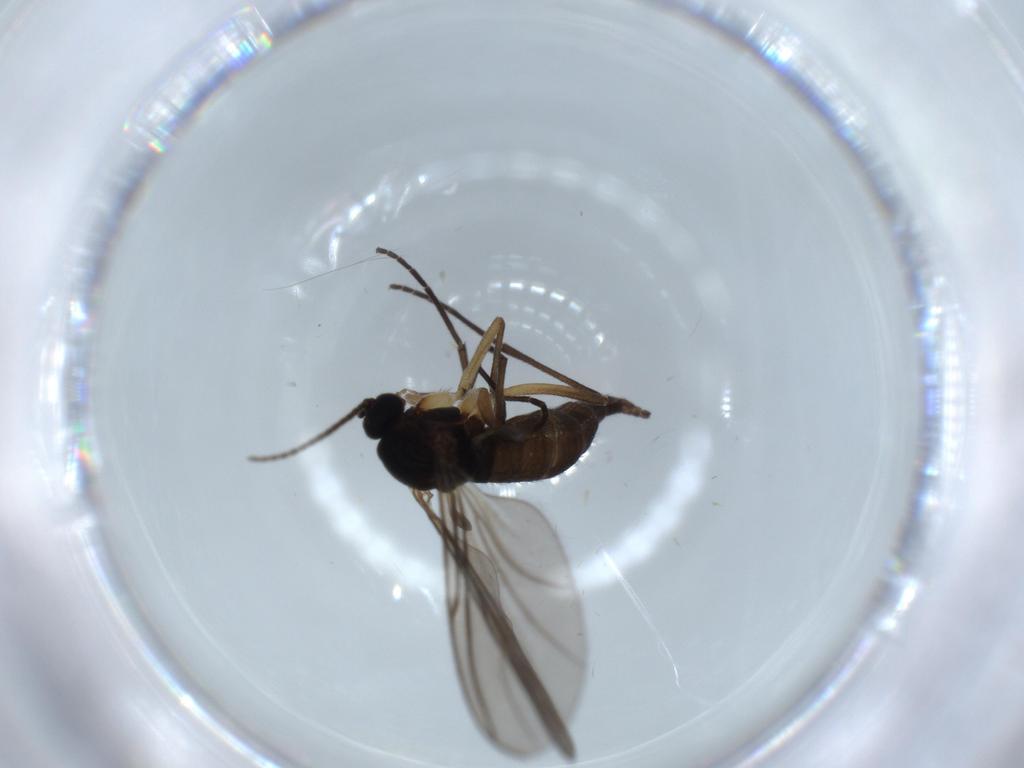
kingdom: Animalia
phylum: Arthropoda
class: Insecta
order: Diptera
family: Sciaridae
